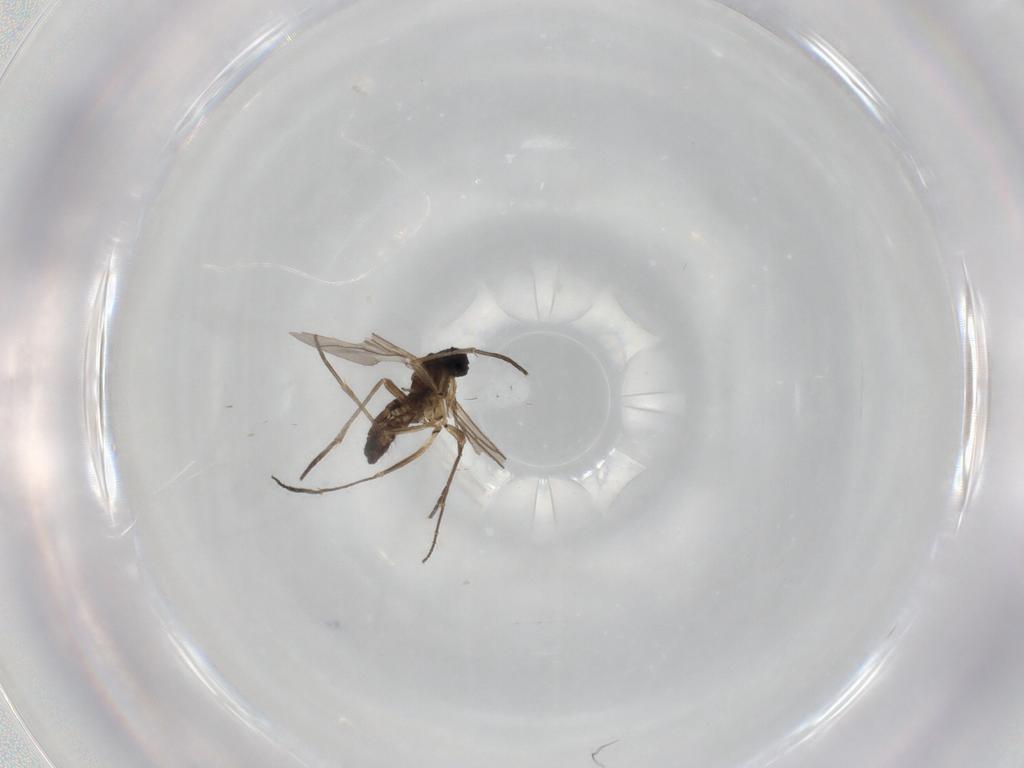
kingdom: Animalia
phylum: Arthropoda
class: Insecta
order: Diptera
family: Sciaridae
